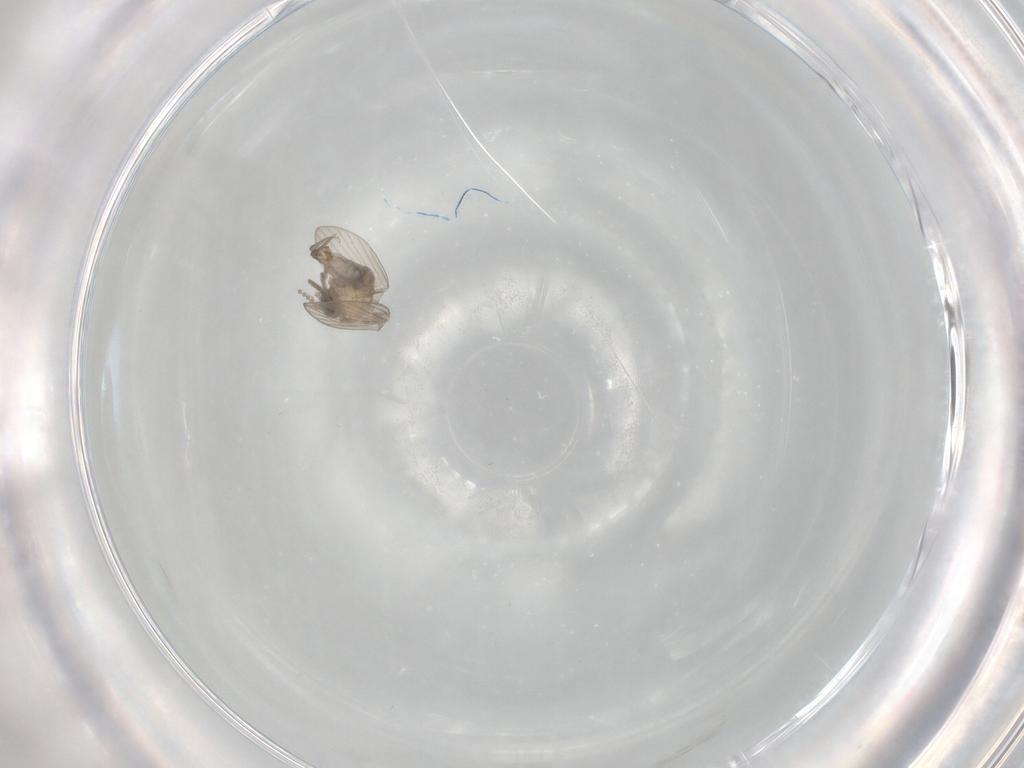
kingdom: Animalia
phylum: Arthropoda
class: Insecta
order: Diptera
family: Psychodidae
